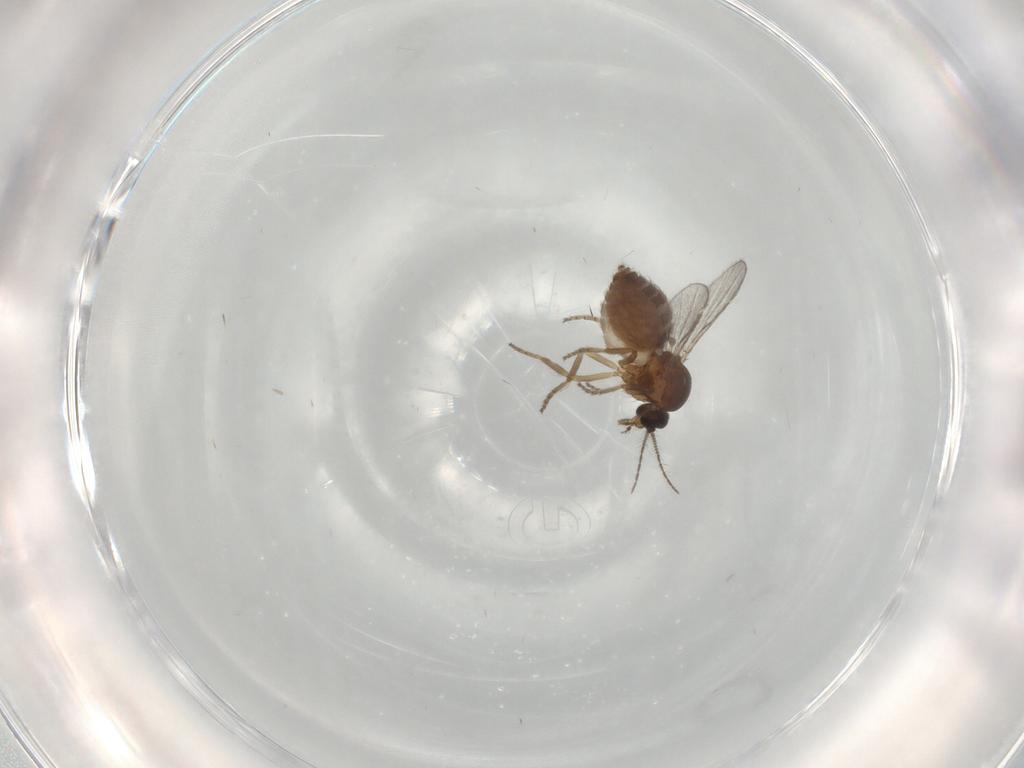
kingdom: Animalia
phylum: Arthropoda
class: Insecta
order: Diptera
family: Ceratopogonidae
